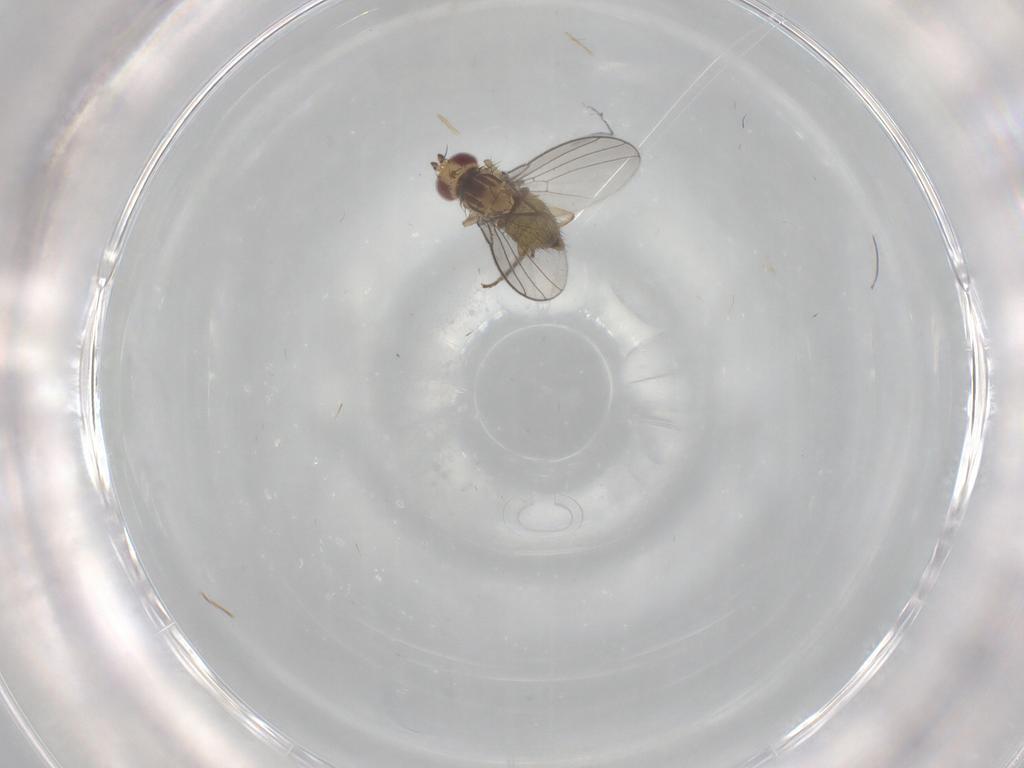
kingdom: Animalia
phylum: Arthropoda
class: Insecta
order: Diptera
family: Agromyzidae
